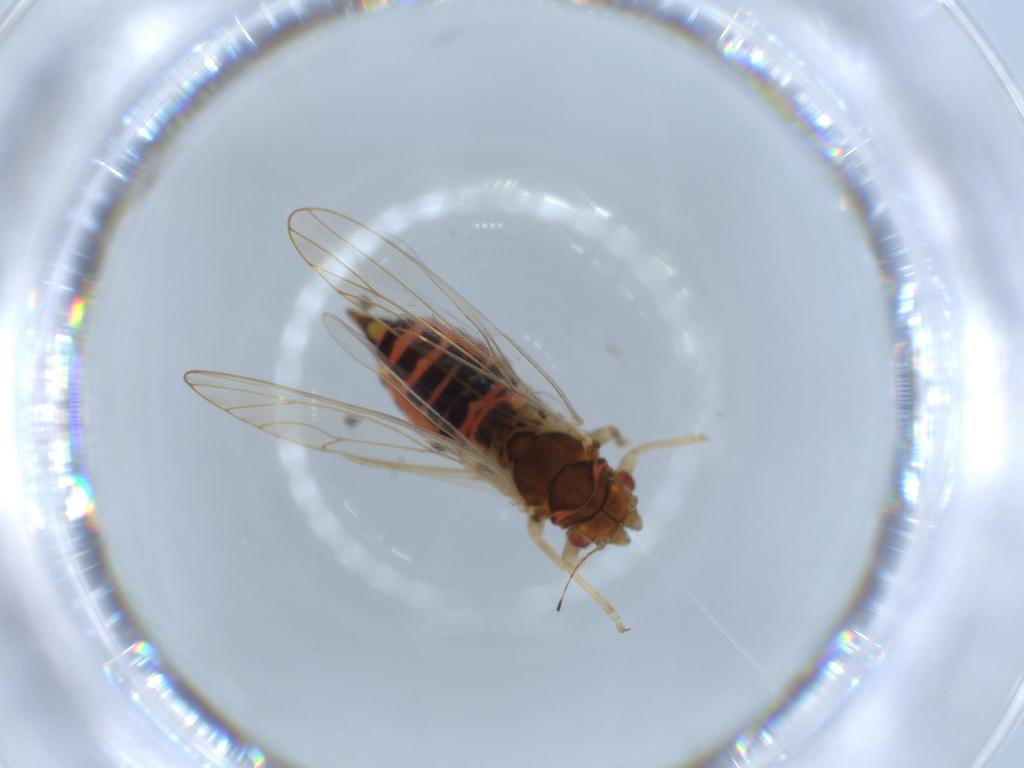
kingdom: Animalia
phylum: Arthropoda
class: Insecta
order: Hemiptera
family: Aleyrodidae
